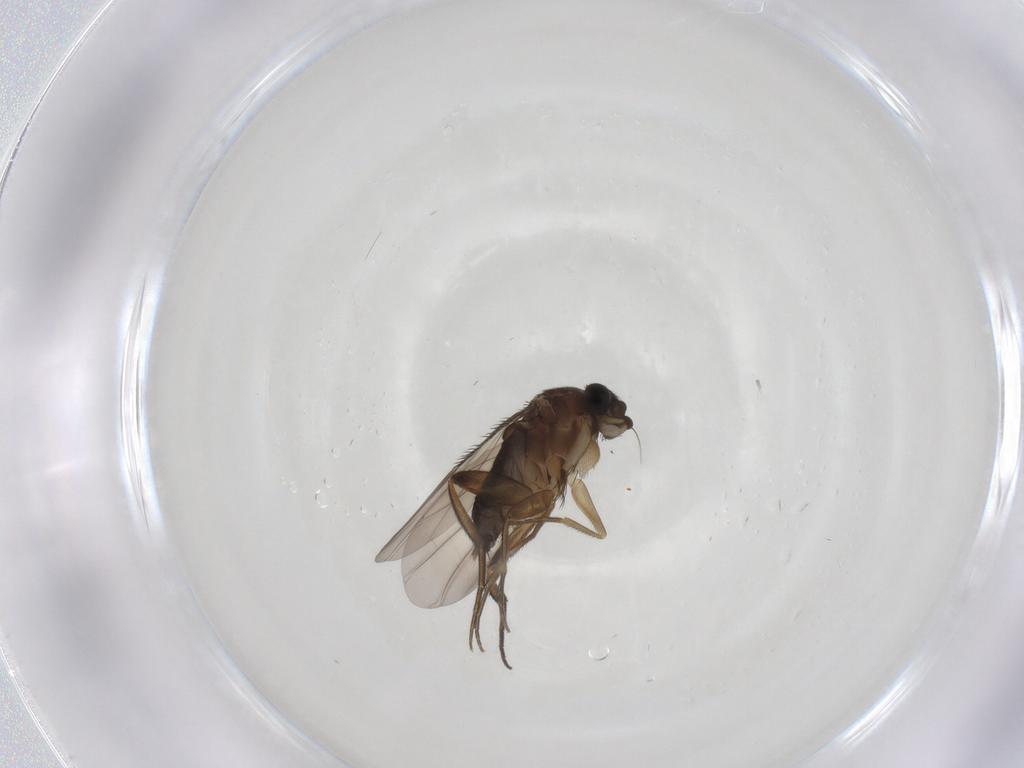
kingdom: Animalia
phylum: Arthropoda
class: Insecta
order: Diptera
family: Phoridae
